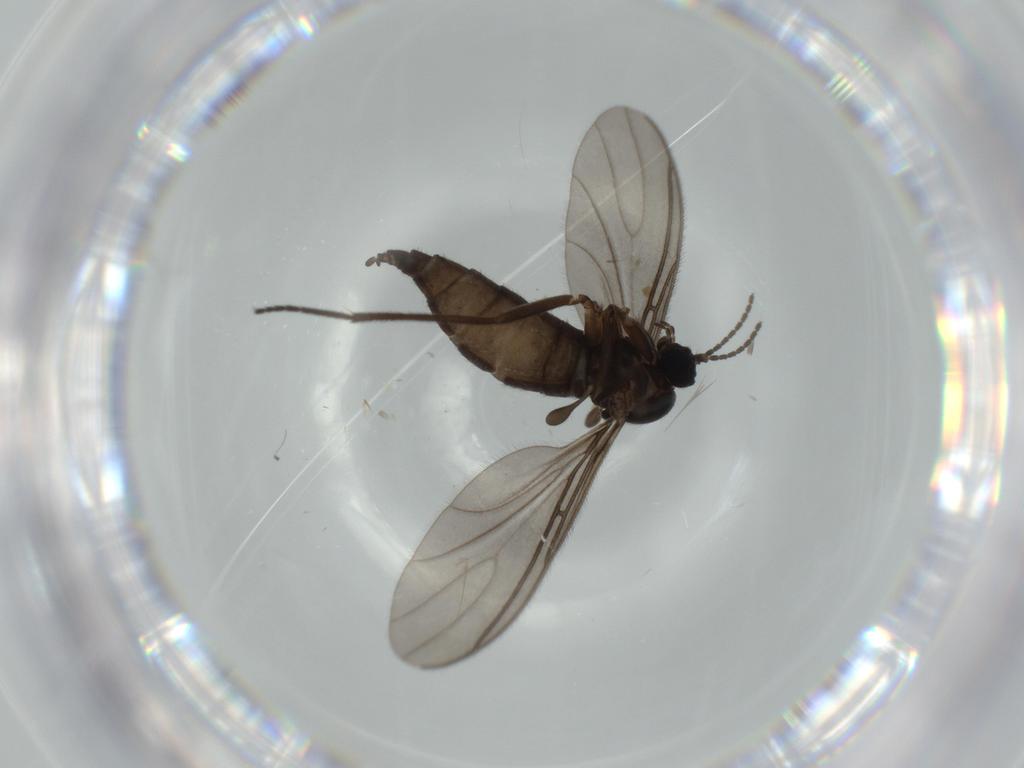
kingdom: Animalia
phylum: Arthropoda
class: Insecta
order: Diptera
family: Sciaridae
